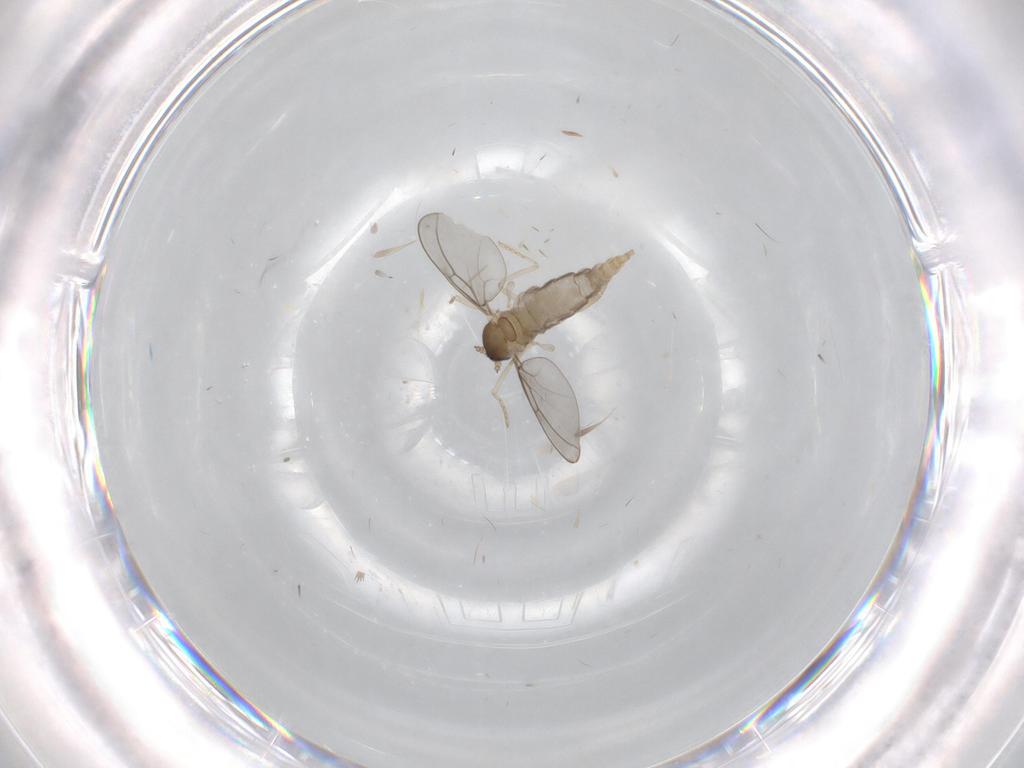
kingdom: Animalia
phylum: Arthropoda
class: Insecta
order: Diptera
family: Cecidomyiidae
